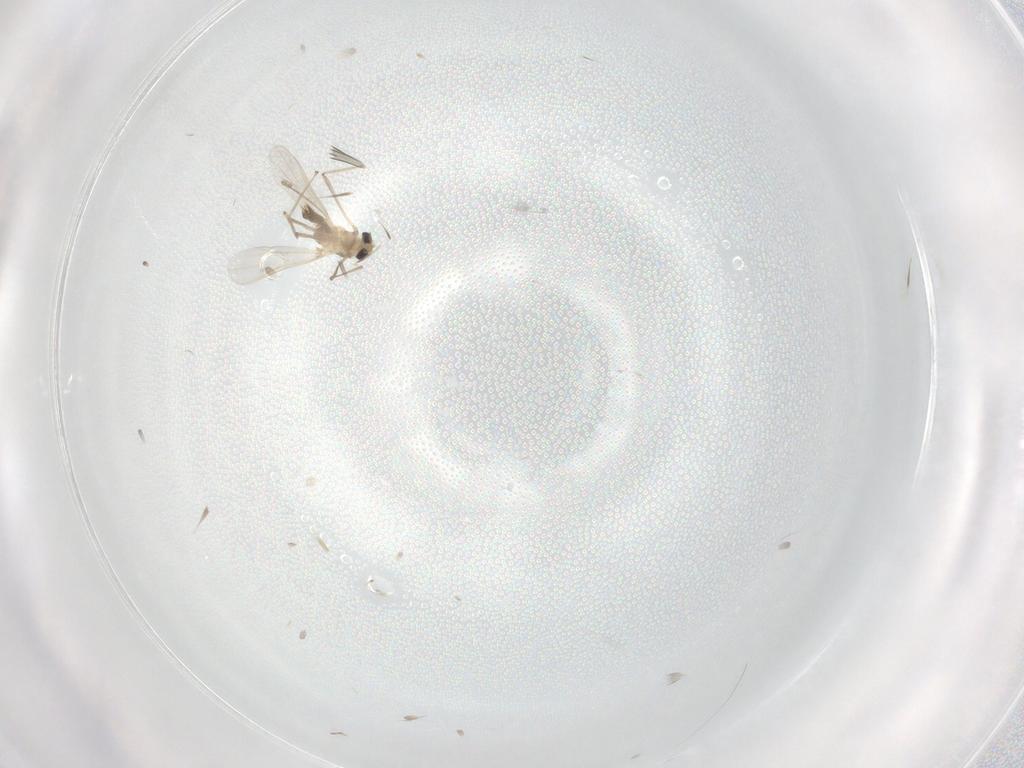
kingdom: Animalia
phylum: Arthropoda
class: Insecta
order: Diptera
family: Chironomidae
